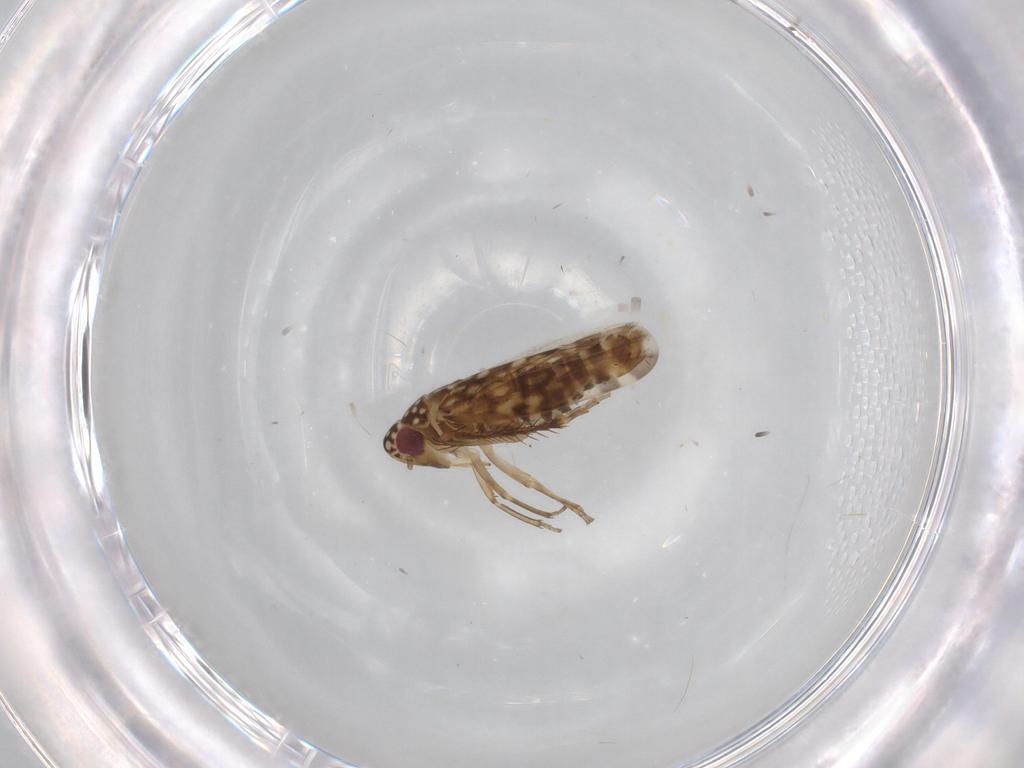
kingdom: Animalia
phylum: Arthropoda
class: Insecta
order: Hemiptera
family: Cicadellidae
